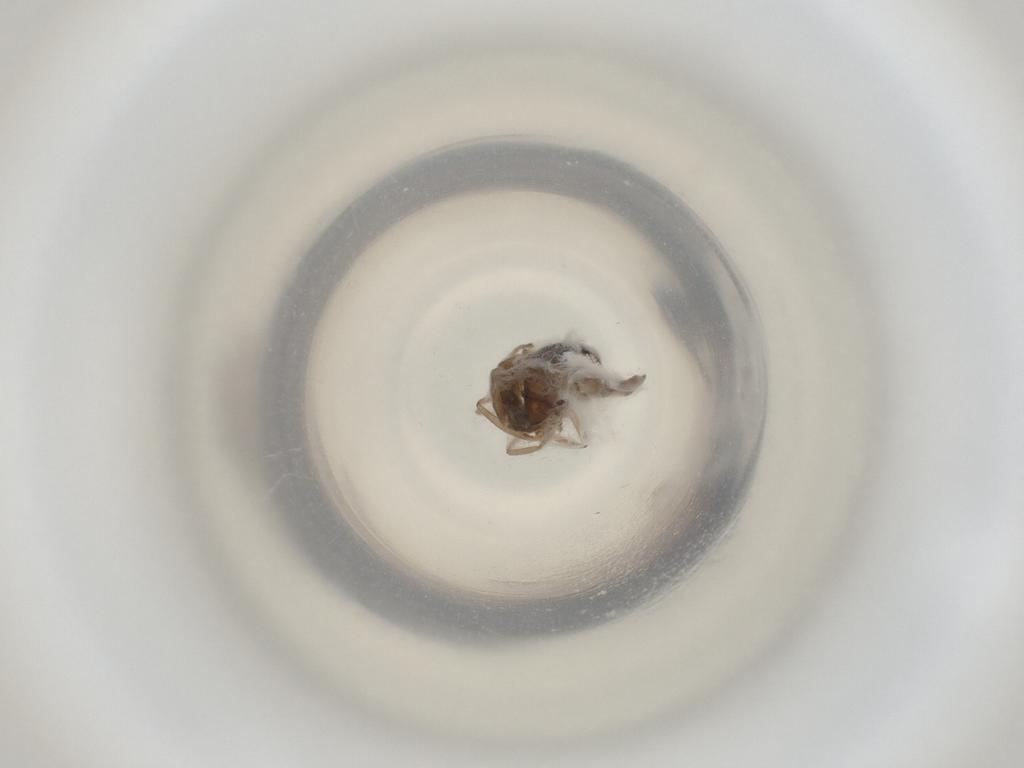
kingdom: Animalia
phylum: Arthropoda
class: Insecta
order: Diptera
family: Cecidomyiidae
